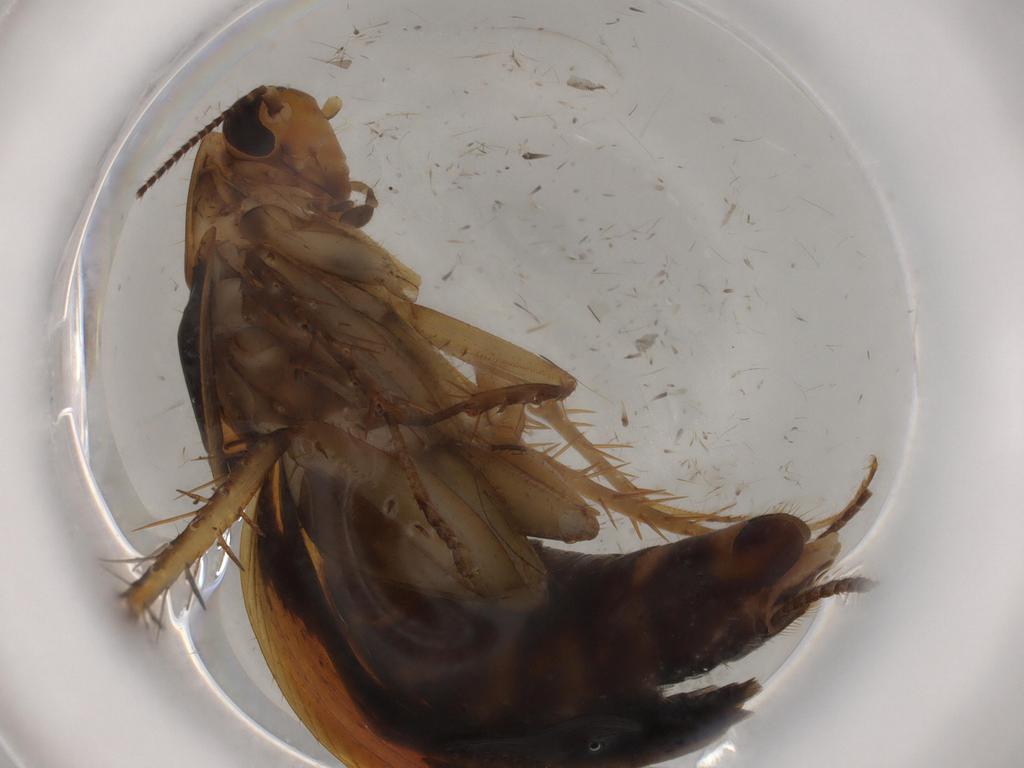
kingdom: Animalia
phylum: Arthropoda
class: Insecta
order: Blattodea
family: Ectobiidae
